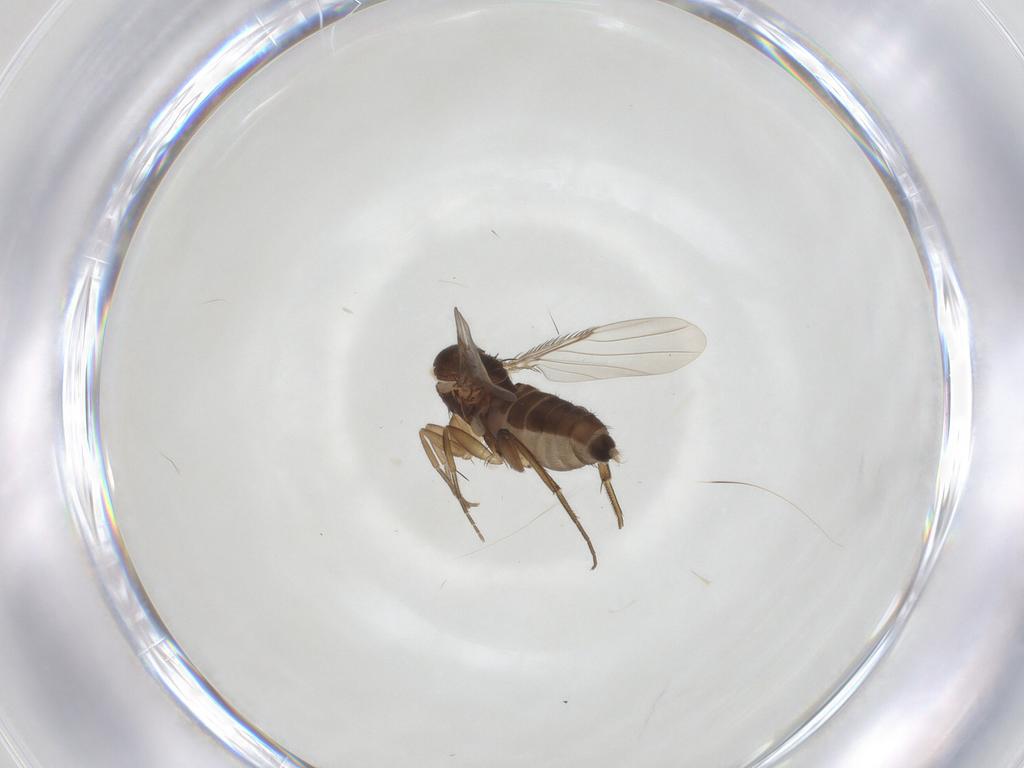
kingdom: Animalia
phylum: Arthropoda
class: Insecta
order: Diptera
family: Phoridae
